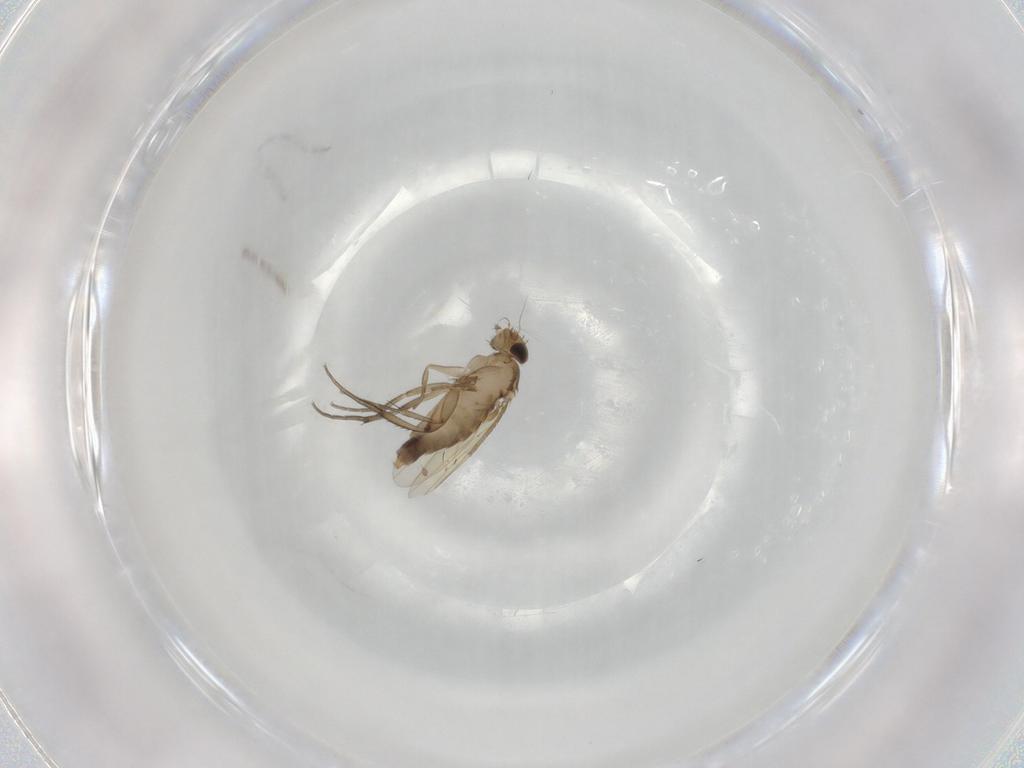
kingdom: Animalia
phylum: Arthropoda
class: Insecta
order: Diptera
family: Phoridae
